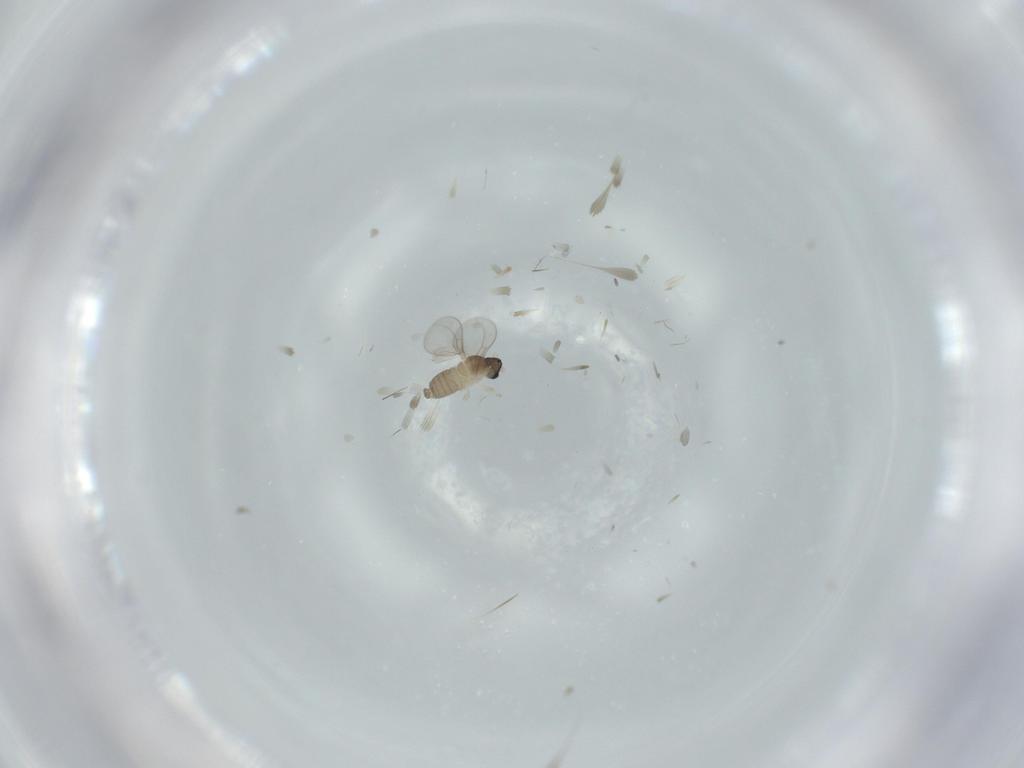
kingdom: Animalia
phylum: Arthropoda
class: Insecta
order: Diptera
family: Cecidomyiidae
